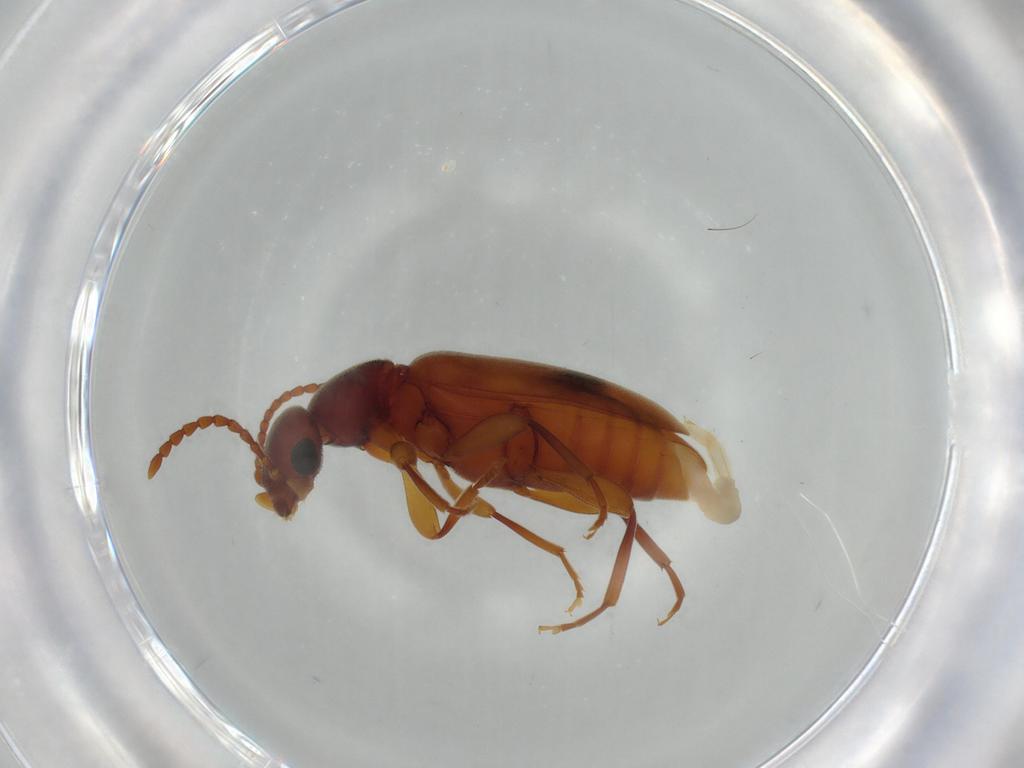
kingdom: Animalia
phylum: Arthropoda
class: Insecta
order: Coleoptera
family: Anthicidae
